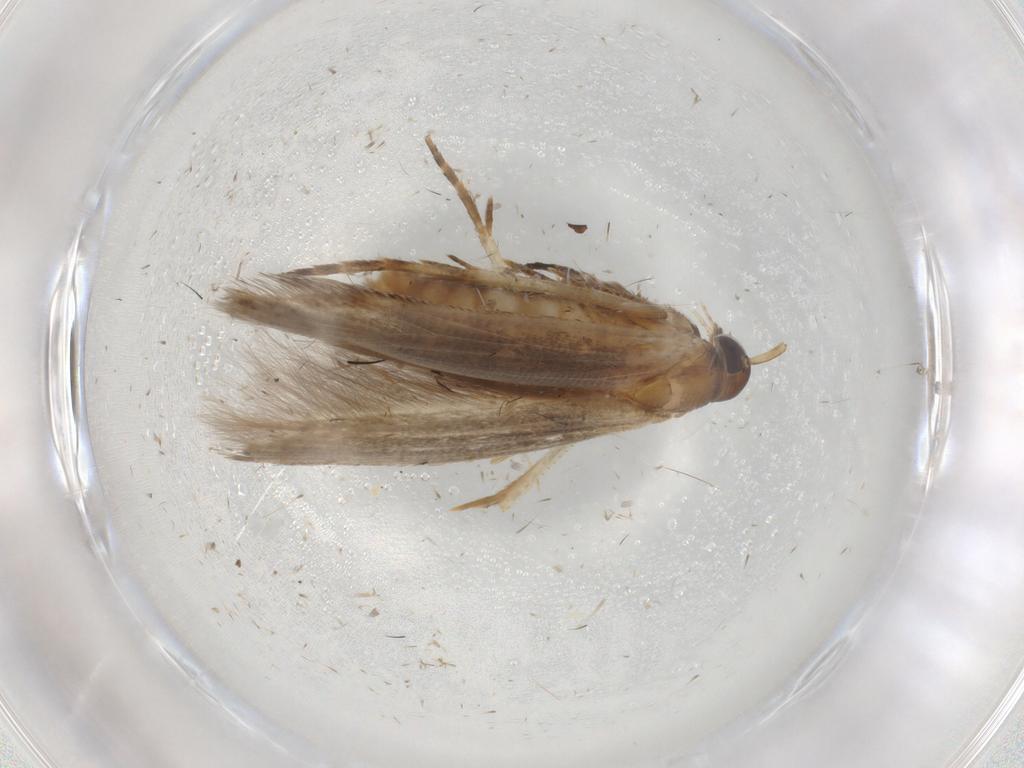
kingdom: Animalia
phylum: Arthropoda
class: Insecta
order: Lepidoptera
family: Cosmopterigidae
